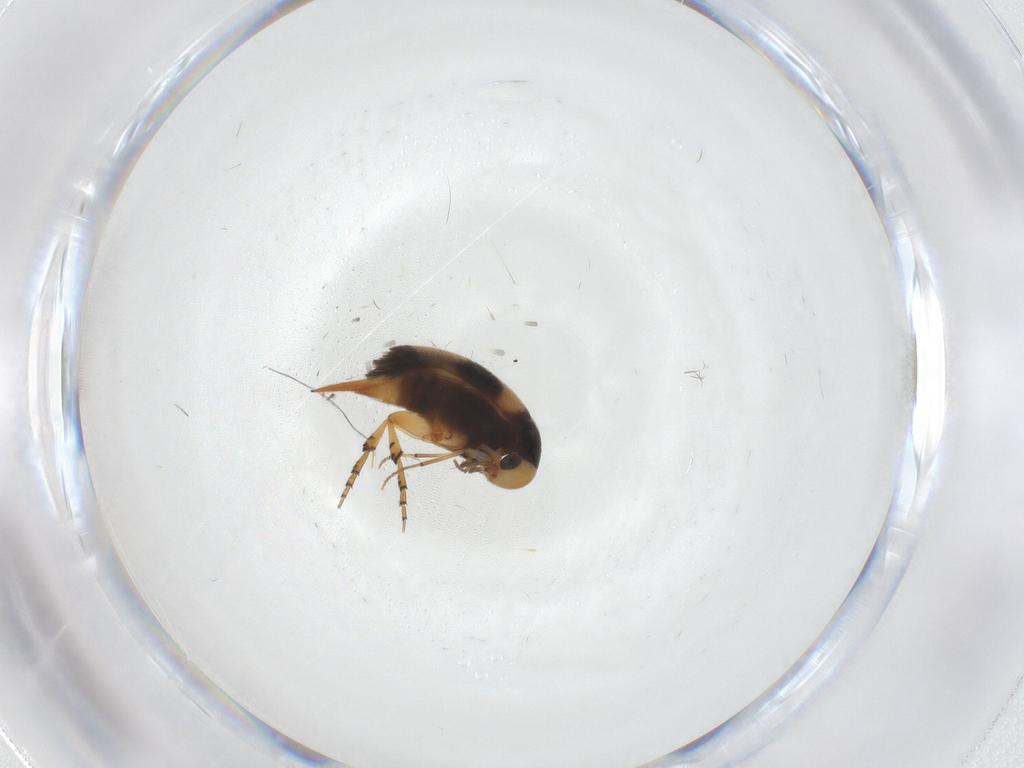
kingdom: Animalia
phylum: Arthropoda
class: Insecta
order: Coleoptera
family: Mordellidae
